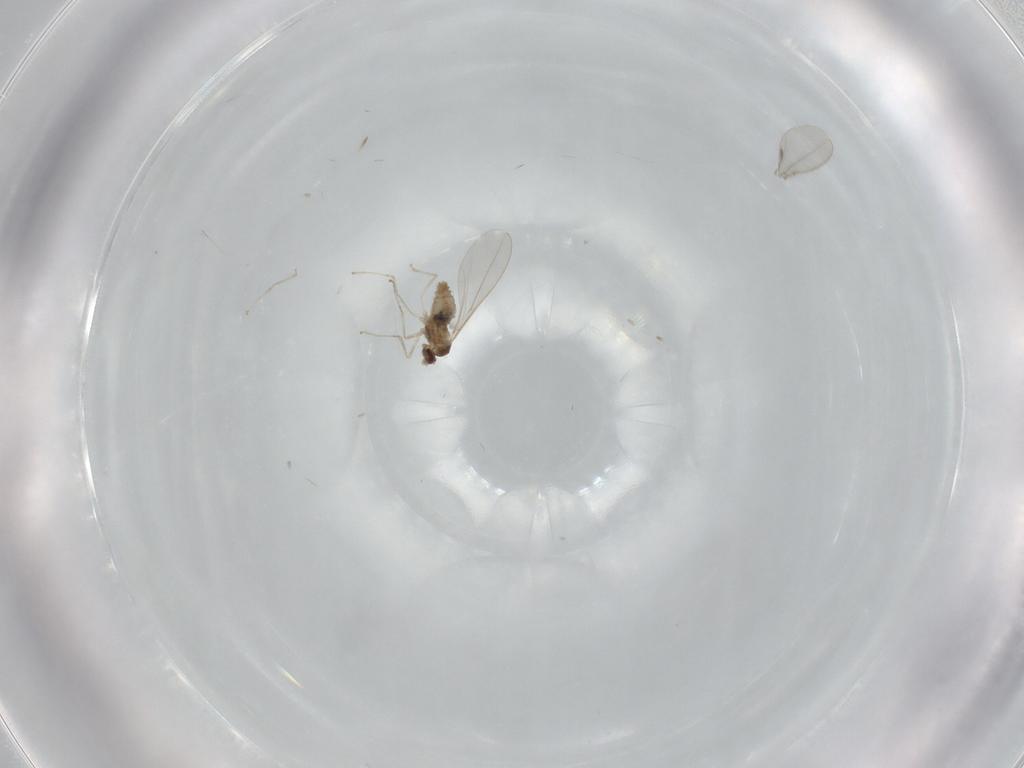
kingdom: Animalia
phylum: Arthropoda
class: Insecta
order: Diptera
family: Cecidomyiidae
